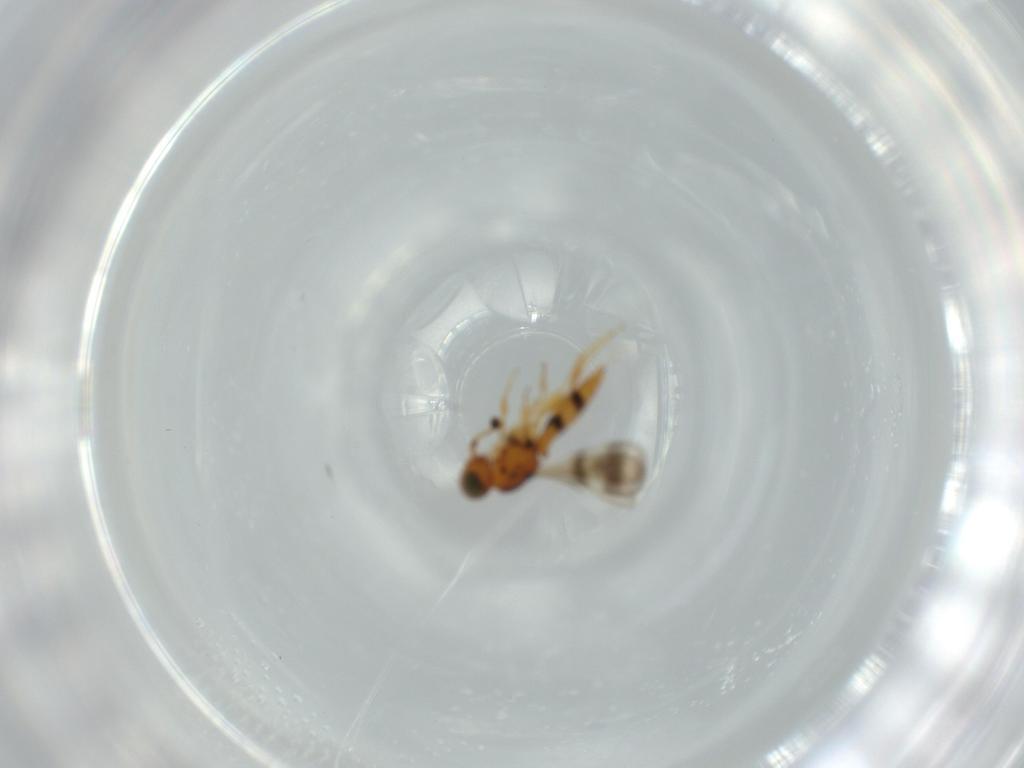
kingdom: Animalia
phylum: Arthropoda
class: Insecta
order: Hymenoptera
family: Scelionidae
